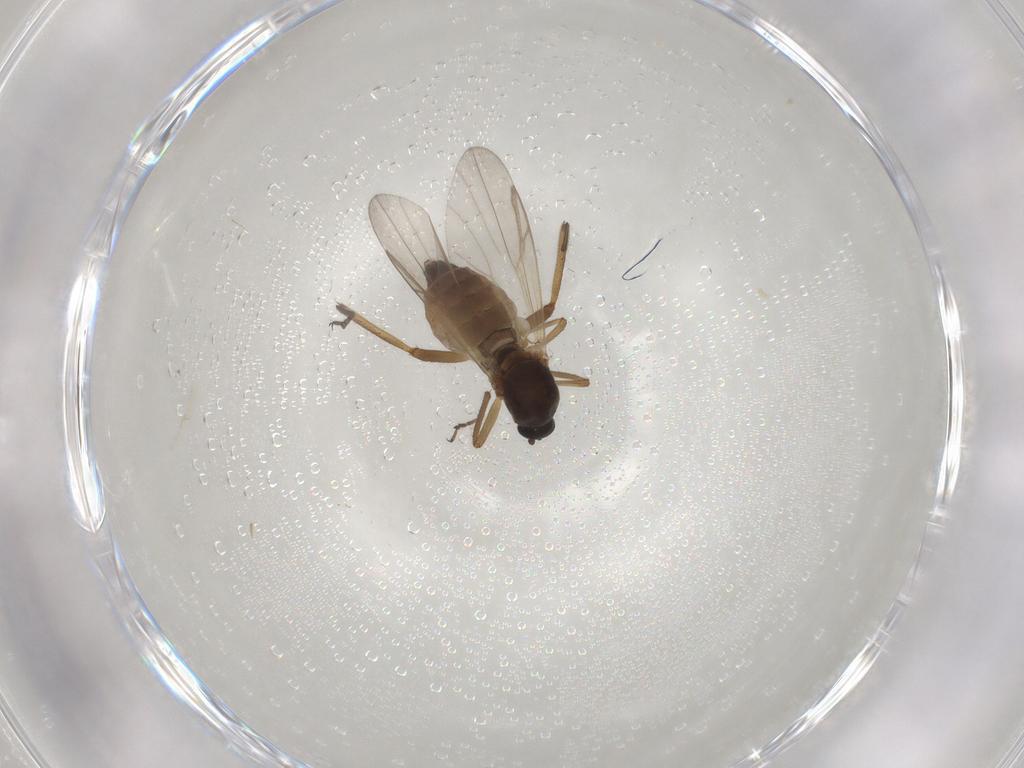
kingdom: Animalia
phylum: Arthropoda
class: Insecta
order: Diptera
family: Ceratopogonidae
